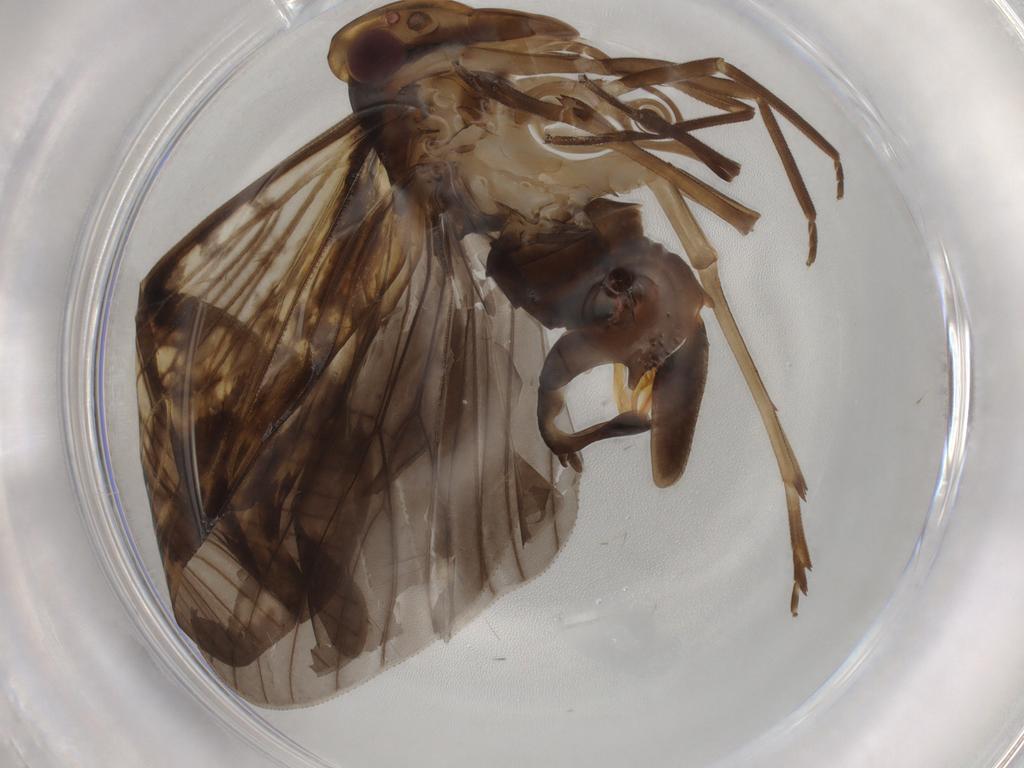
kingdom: Animalia
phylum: Arthropoda
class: Insecta
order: Hemiptera
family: Cixiidae
